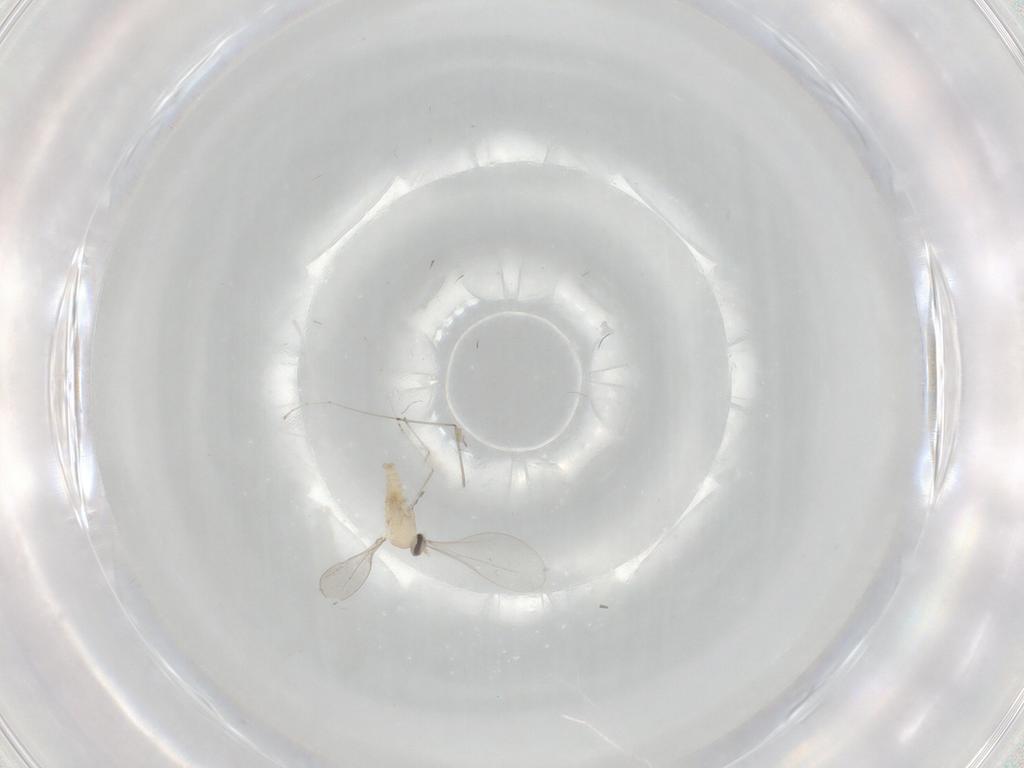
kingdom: Animalia
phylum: Arthropoda
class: Insecta
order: Diptera
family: Cecidomyiidae
